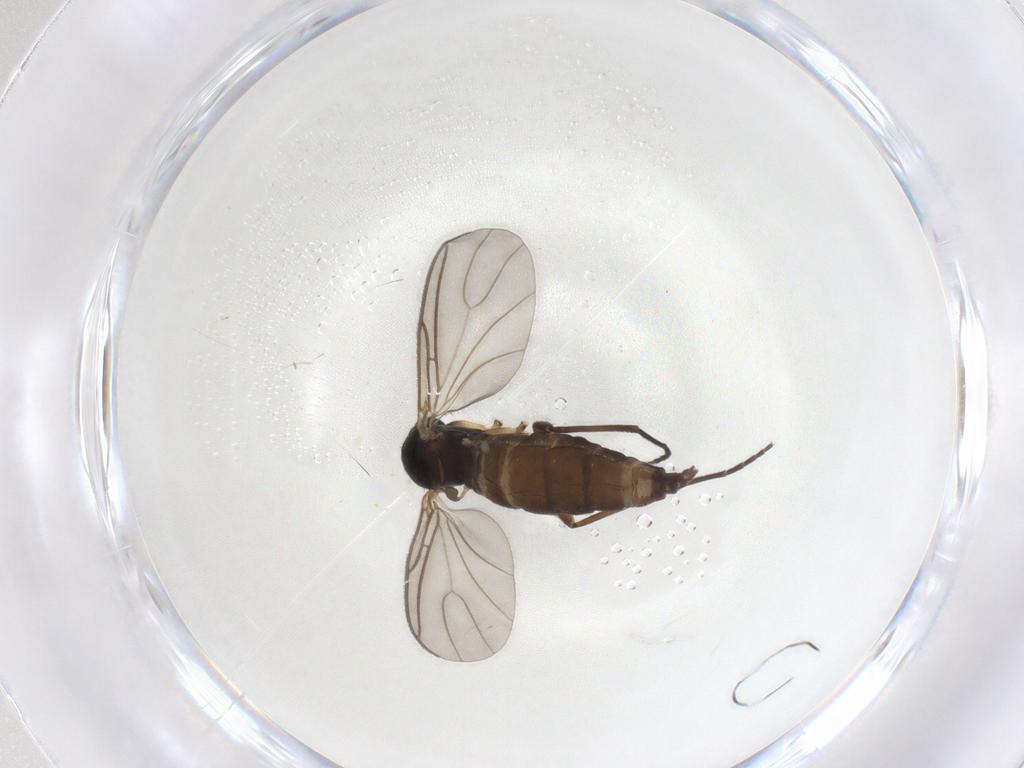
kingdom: Animalia
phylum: Arthropoda
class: Insecta
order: Diptera
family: Sciaridae
